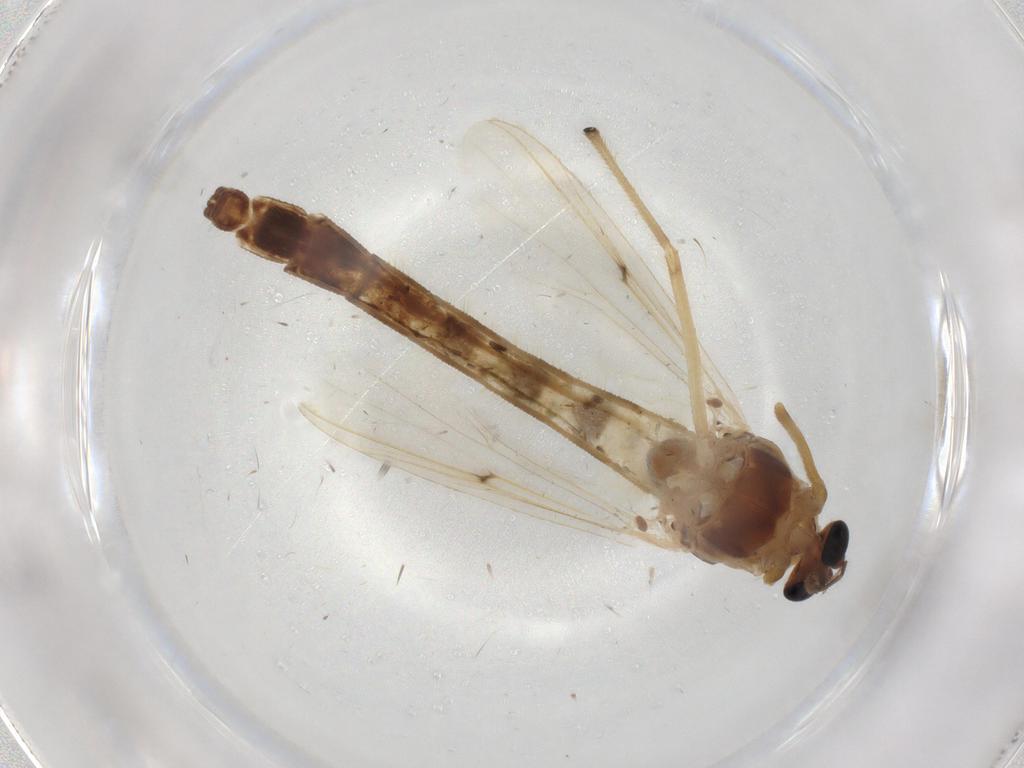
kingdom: Animalia
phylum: Arthropoda
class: Insecta
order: Diptera
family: Chironomidae
